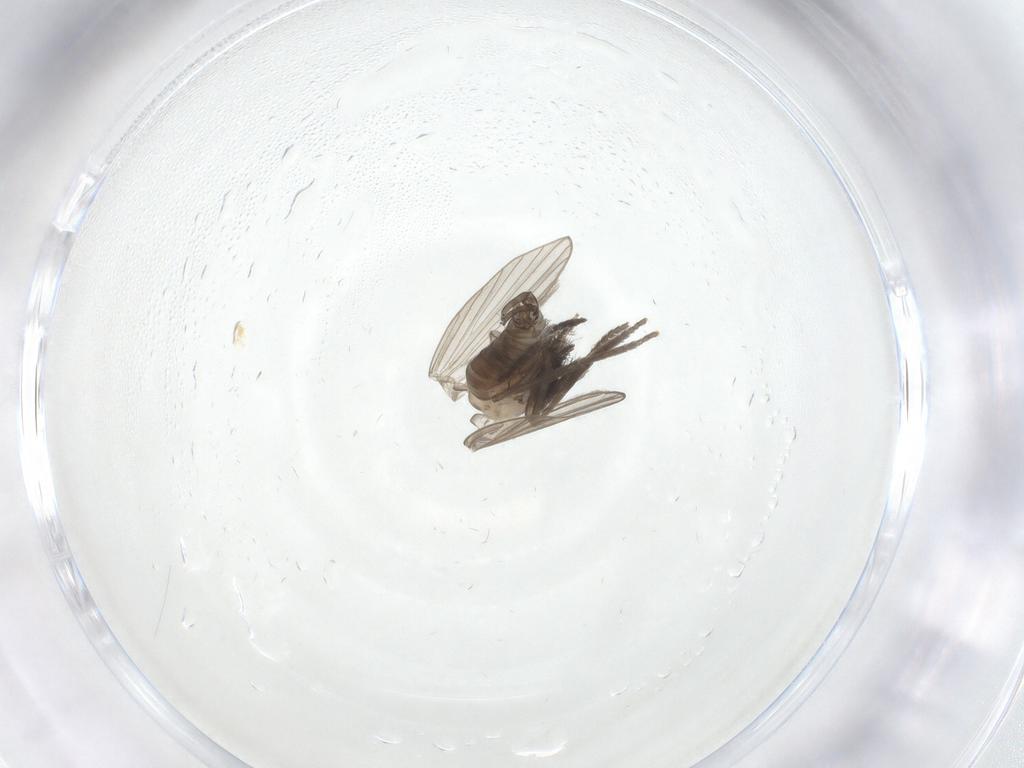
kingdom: Animalia
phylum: Arthropoda
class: Insecta
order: Diptera
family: Psychodidae
